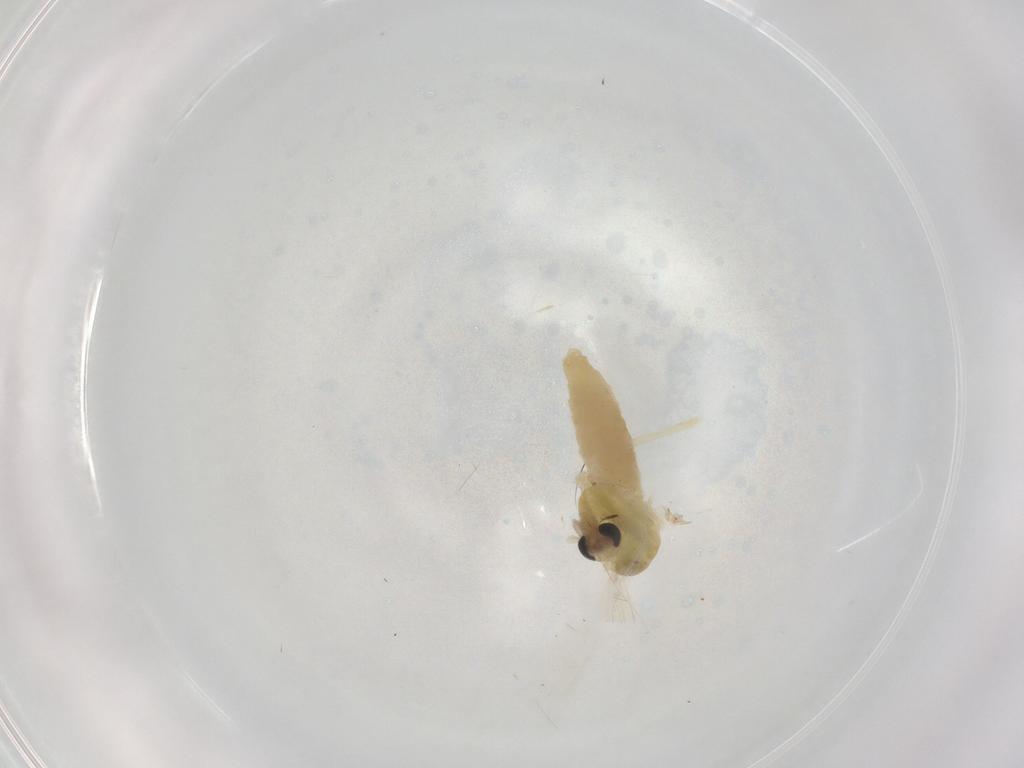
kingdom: Animalia
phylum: Arthropoda
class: Insecta
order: Diptera
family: Chironomidae
